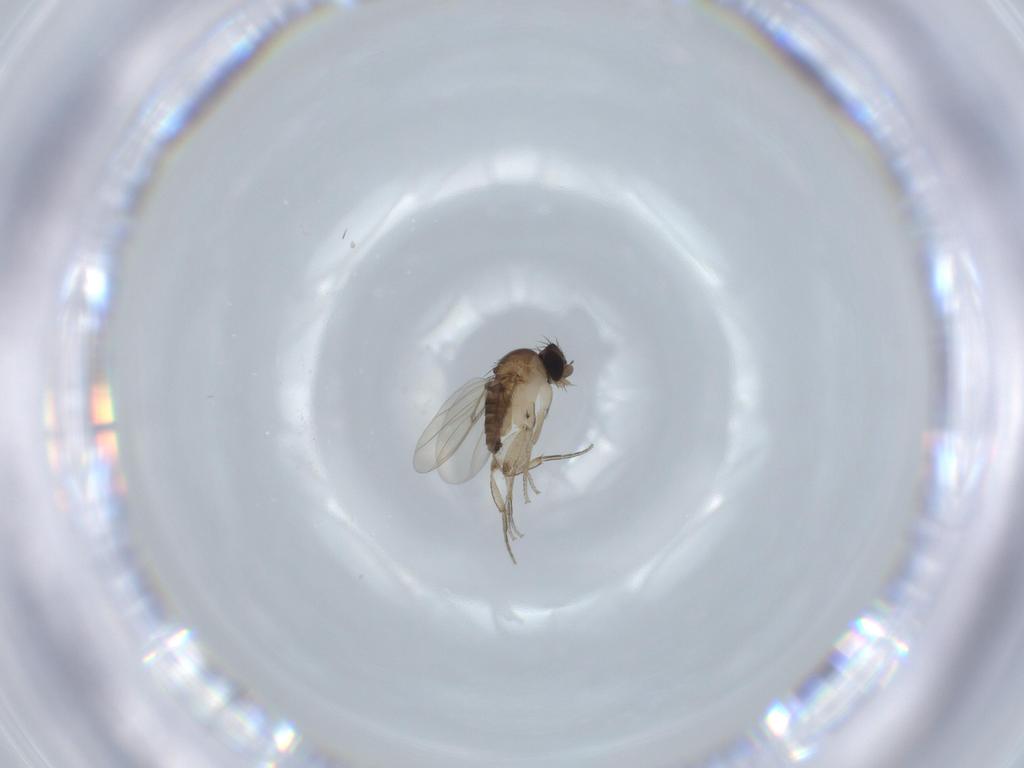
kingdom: Animalia
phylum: Arthropoda
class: Insecta
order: Diptera
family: Phoridae
